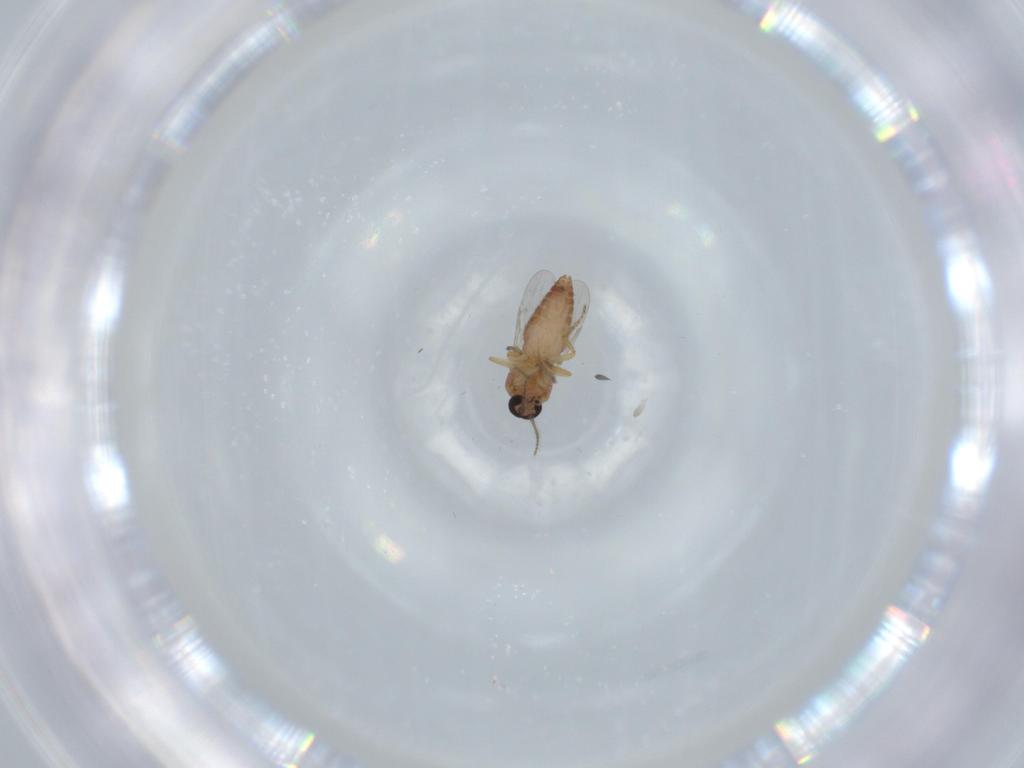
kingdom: Animalia
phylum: Arthropoda
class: Insecta
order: Diptera
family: Ceratopogonidae
